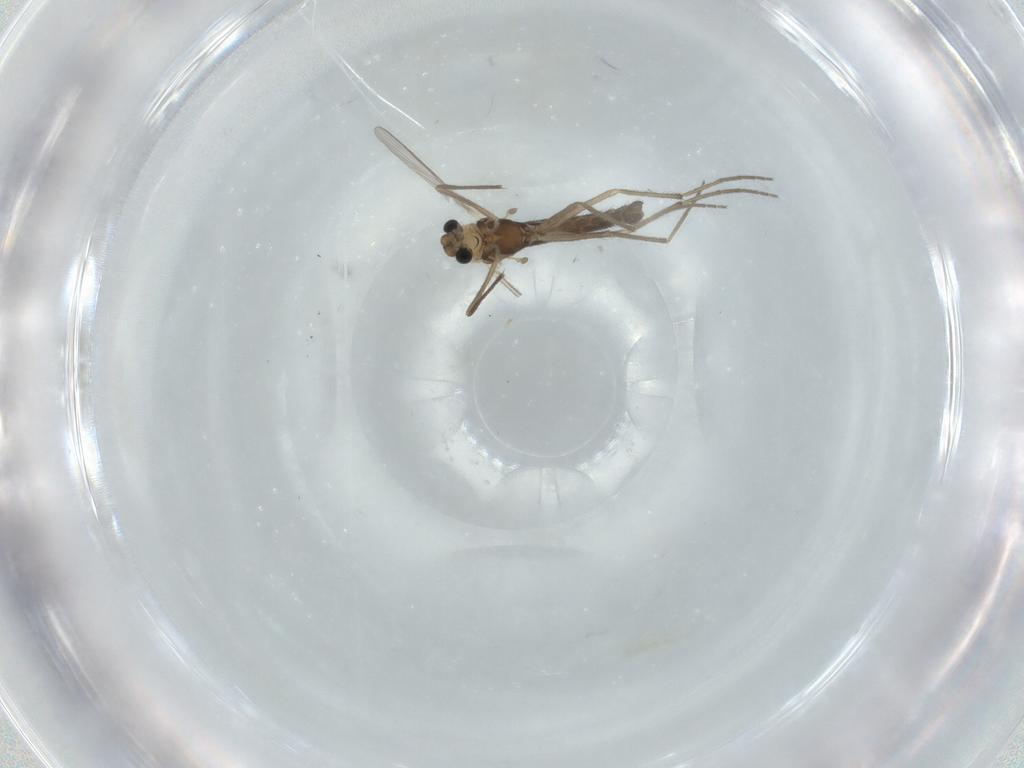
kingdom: Animalia
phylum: Arthropoda
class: Insecta
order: Diptera
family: Chironomidae
